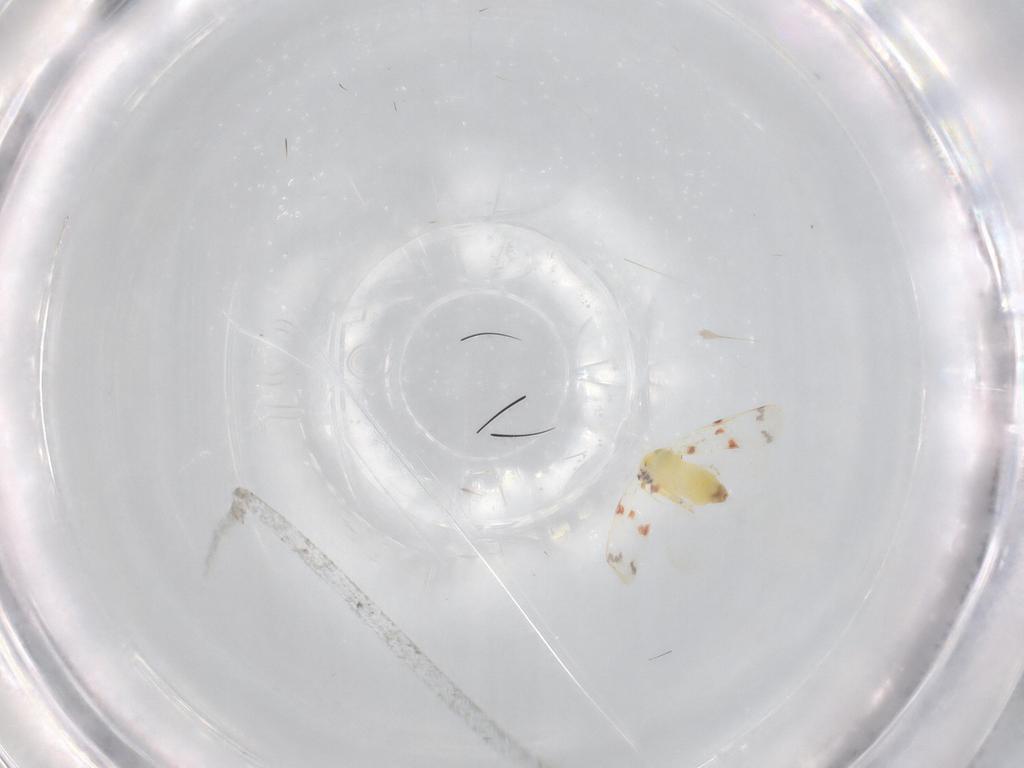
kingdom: Animalia
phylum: Arthropoda
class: Insecta
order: Hemiptera
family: Aleyrodidae
